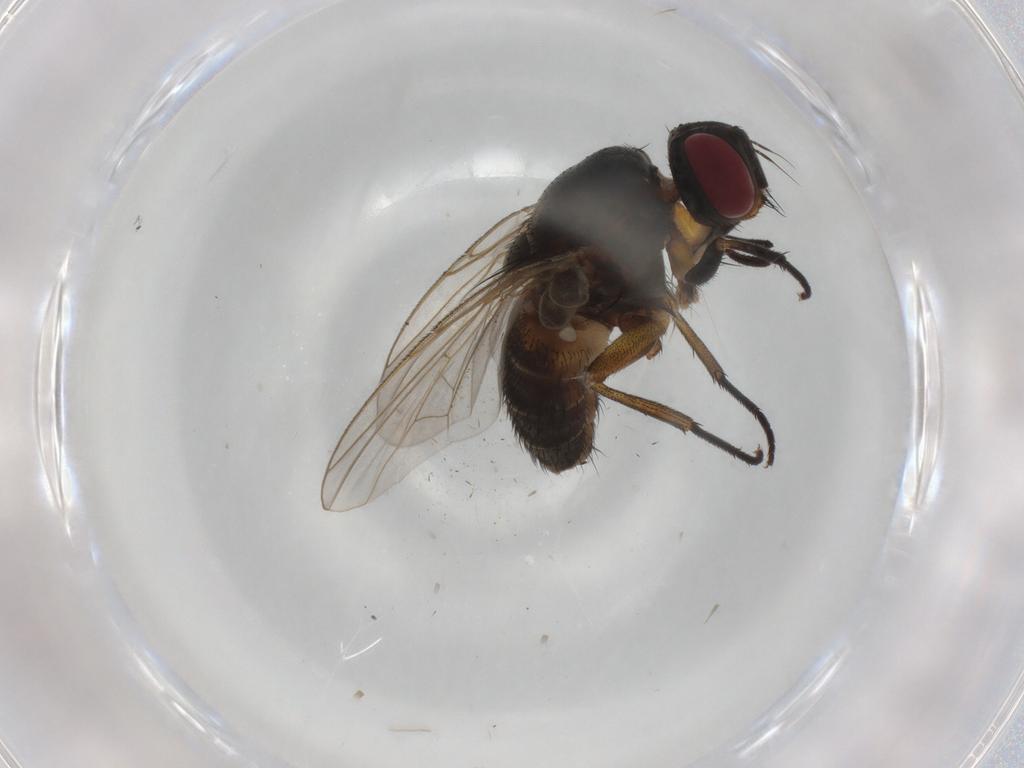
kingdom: Animalia
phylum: Arthropoda
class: Insecta
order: Diptera
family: Muscidae
